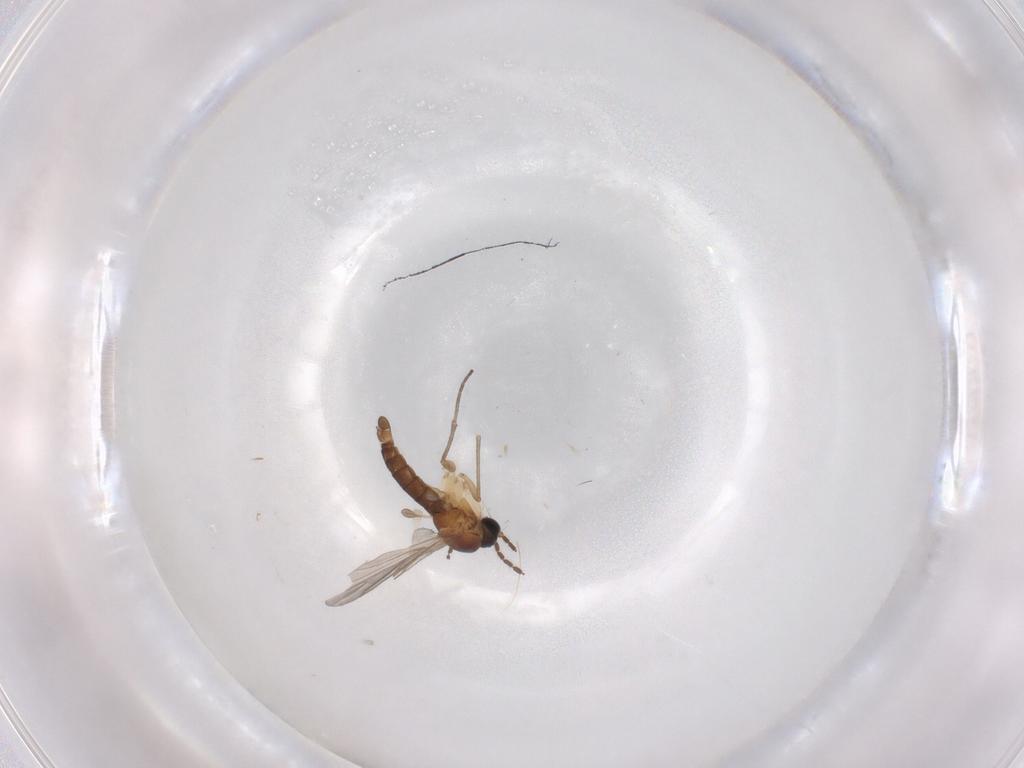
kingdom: Animalia
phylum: Arthropoda
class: Insecta
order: Diptera
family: Sciaridae
